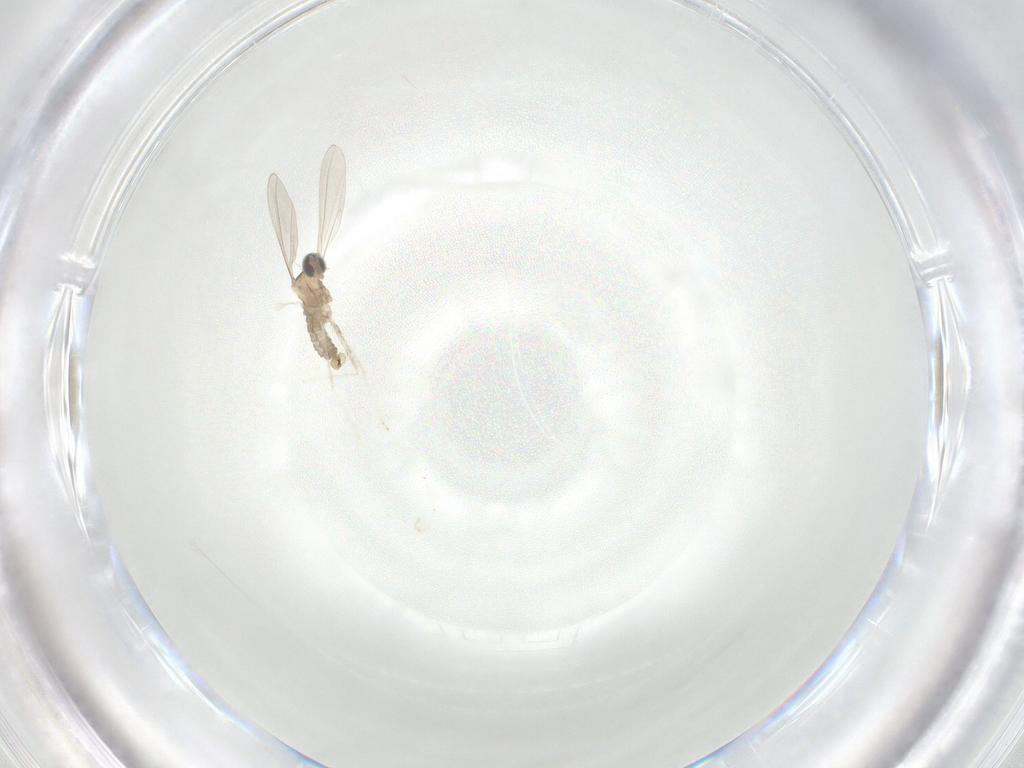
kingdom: Animalia
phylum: Arthropoda
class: Insecta
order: Diptera
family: Cecidomyiidae
